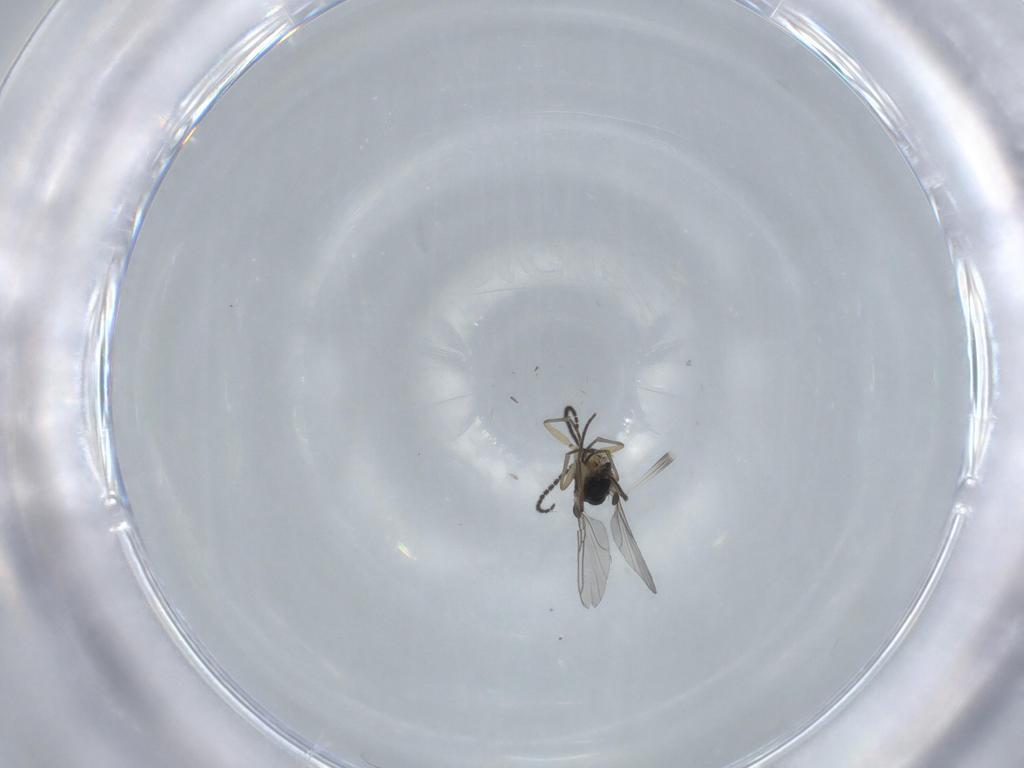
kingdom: Animalia
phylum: Arthropoda
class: Insecta
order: Diptera
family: Sciaridae
